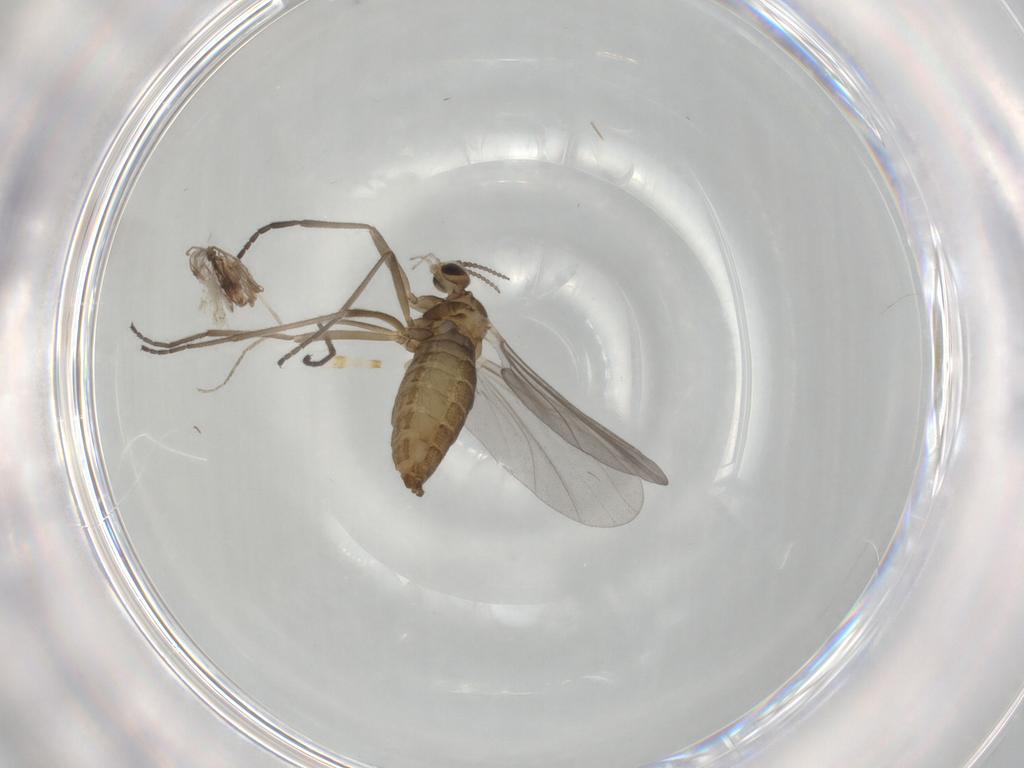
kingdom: Animalia
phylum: Arthropoda
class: Insecta
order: Diptera
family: Cecidomyiidae
